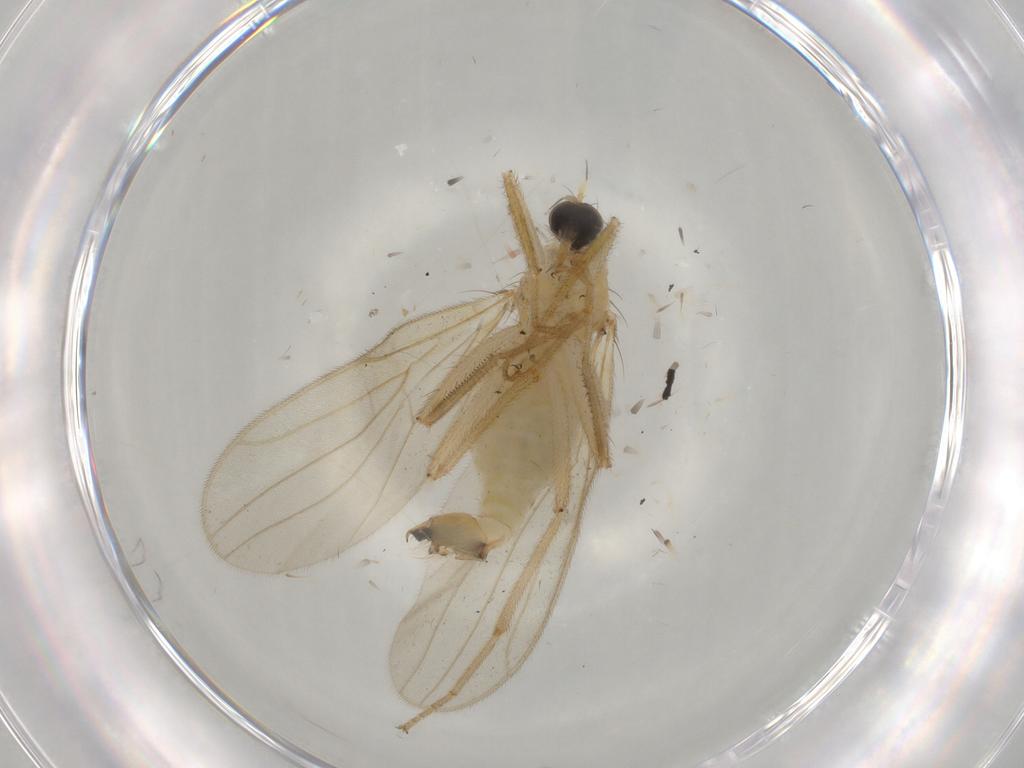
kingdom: Animalia
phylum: Arthropoda
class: Insecta
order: Diptera
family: Hybotidae
